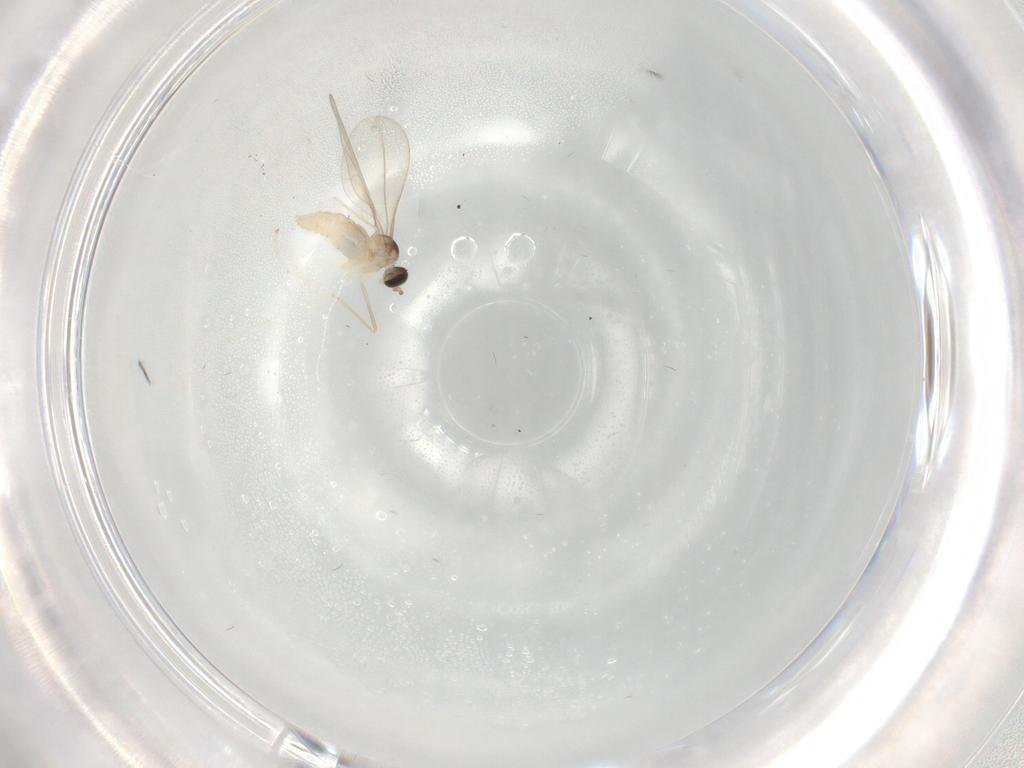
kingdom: Animalia
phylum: Arthropoda
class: Insecta
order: Diptera
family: Cecidomyiidae
